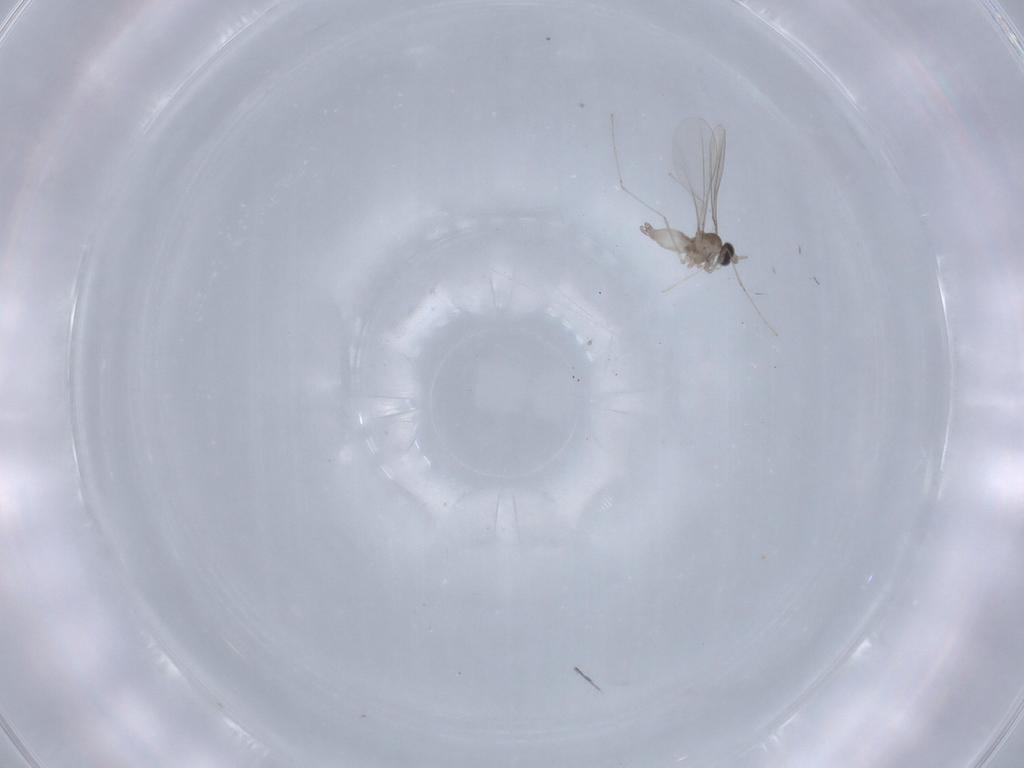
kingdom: Animalia
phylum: Arthropoda
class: Insecta
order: Diptera
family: Cecidomyiidae
